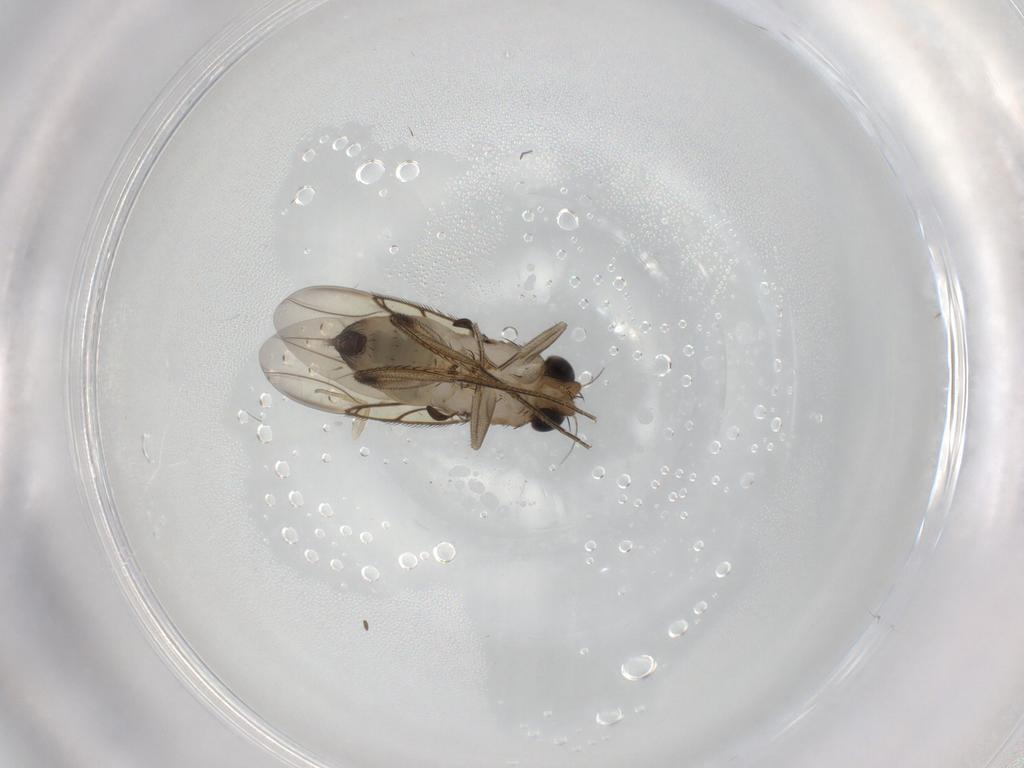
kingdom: Animalia
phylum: Arthropoda
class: Insecta
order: Diptera
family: Phoridae
